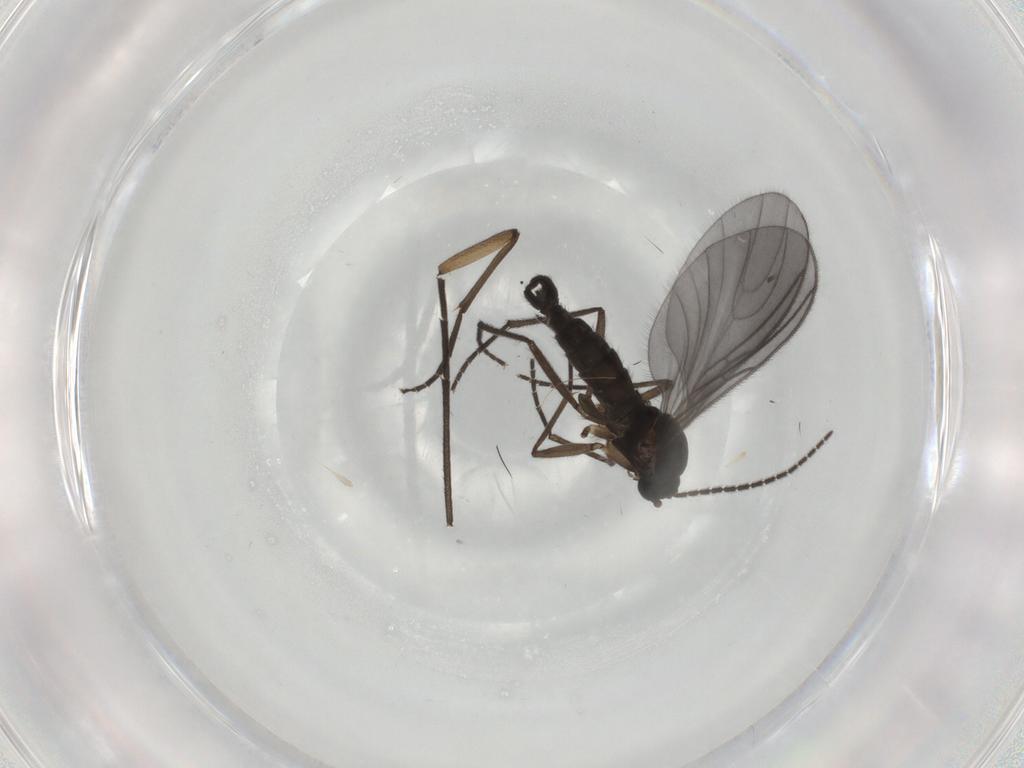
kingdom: Animalia
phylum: Arthropoda
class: Insecta
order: Diptera
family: Sciaridae
